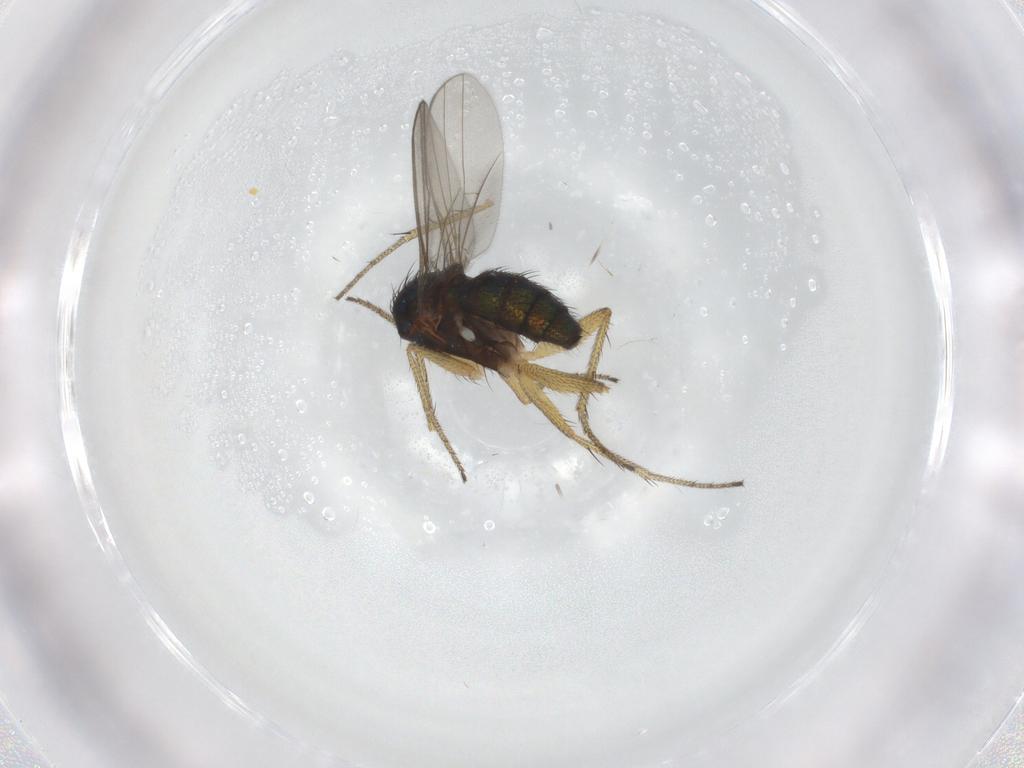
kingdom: Animalia
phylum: Arthropoda
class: Insecta
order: Diptera
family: Dolichopodidae
